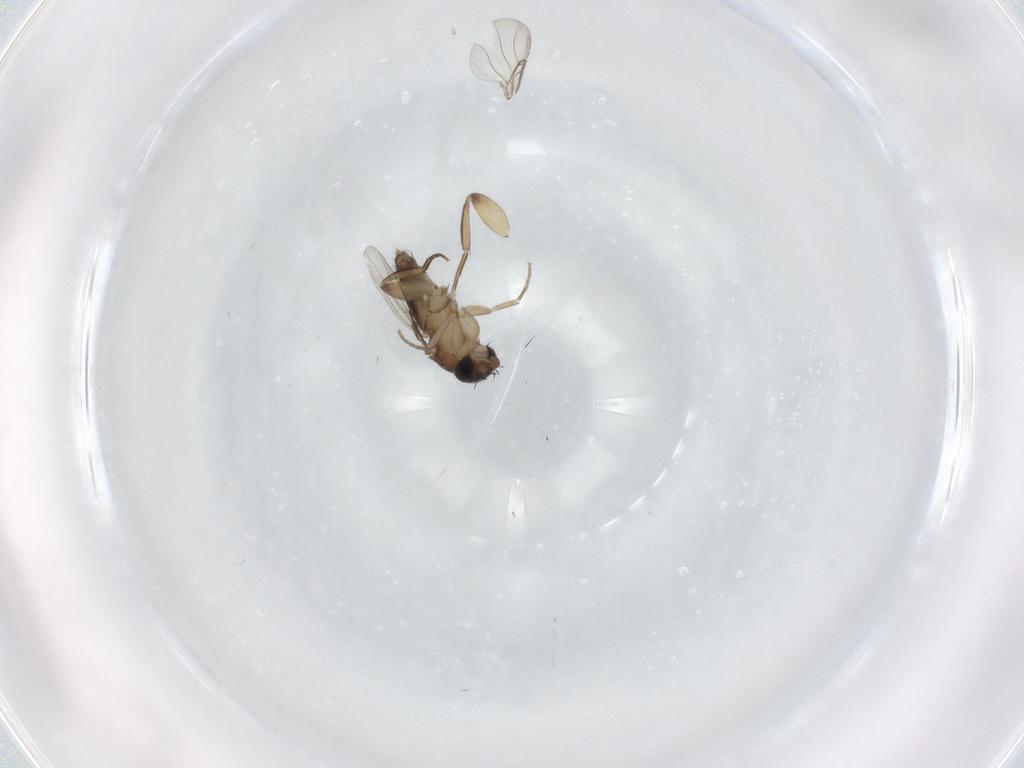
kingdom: Animalia
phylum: Arthropoda
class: Insecta
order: Diptera
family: Phoridae
